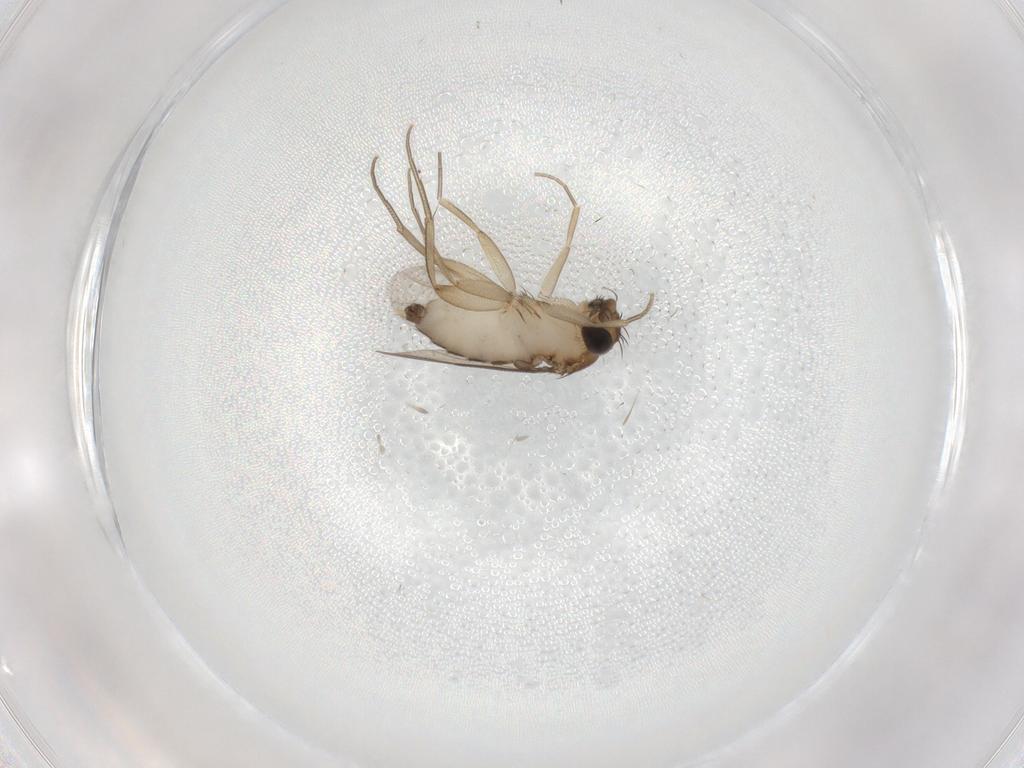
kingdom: Animalia
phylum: Arthropoda
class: Insecta
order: Diptera
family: Phoridae
